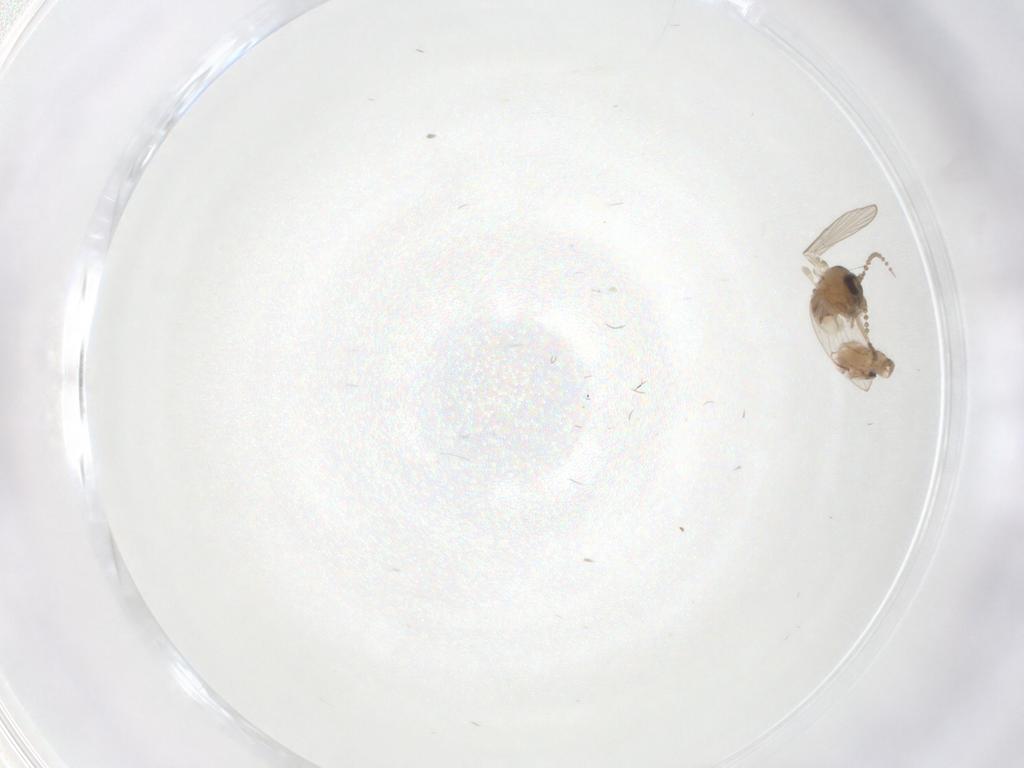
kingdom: Animalia
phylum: Arthropoda
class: Insecta
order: Diptera
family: Psychodidae
